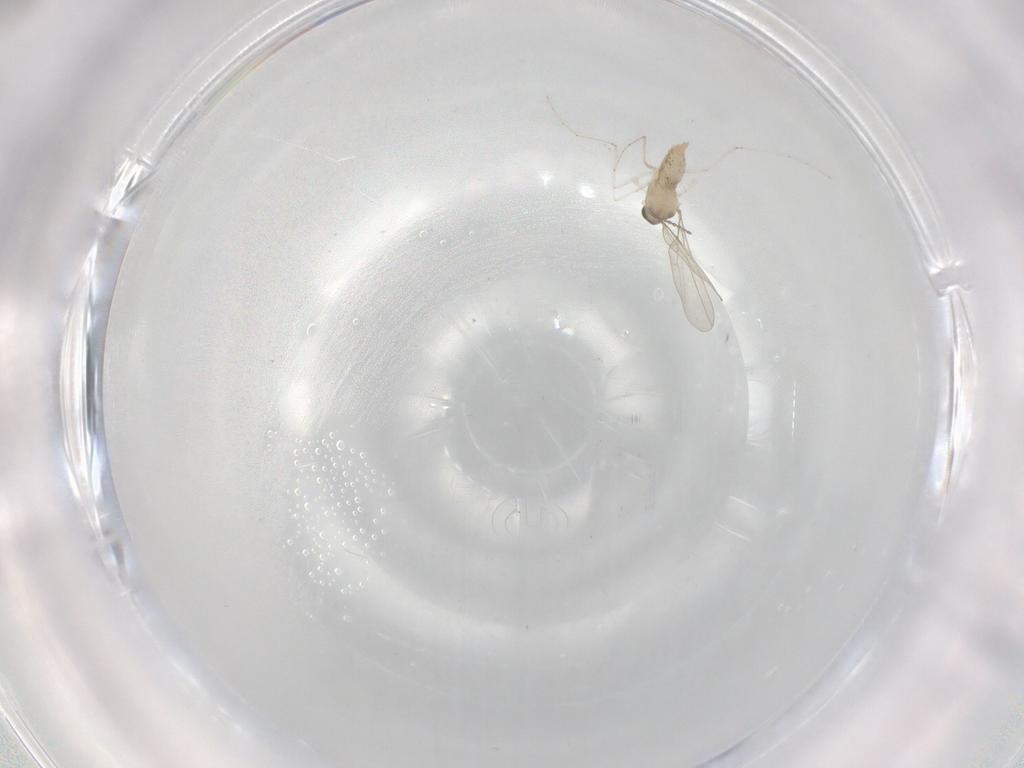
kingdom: Animalia
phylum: Arthropoda
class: Insecta
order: Diptera
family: Cecidomyiidae
